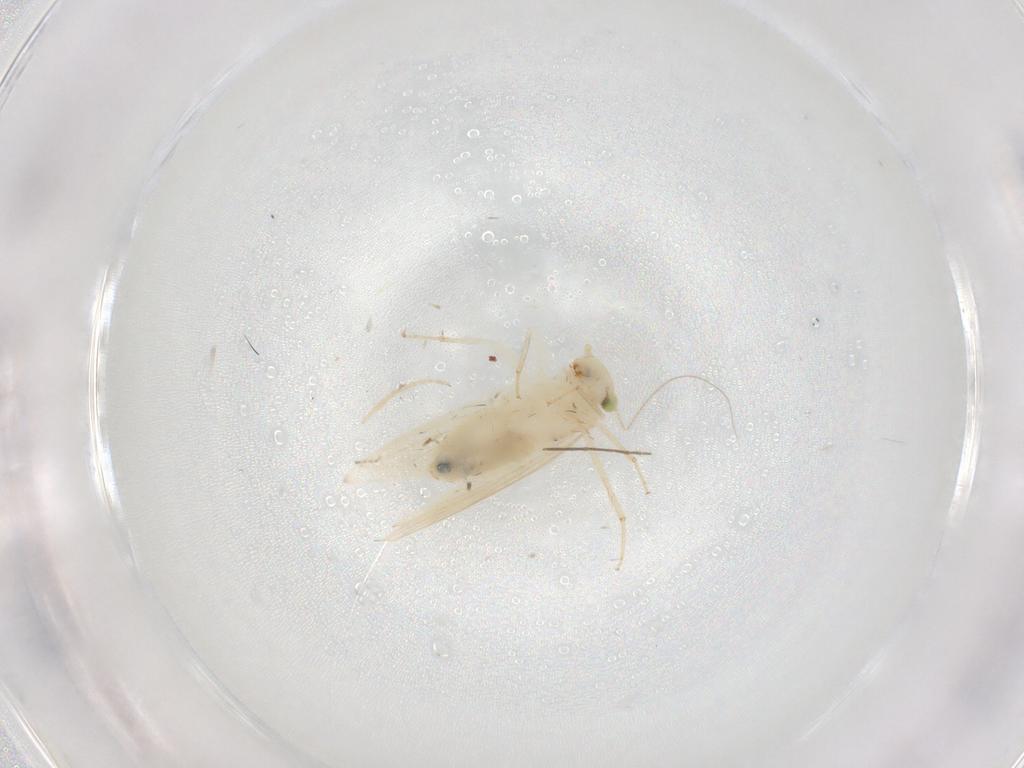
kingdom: Animalia
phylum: Arthropoda
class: Insecta
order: Psocodea
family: Lepidopsocidae
